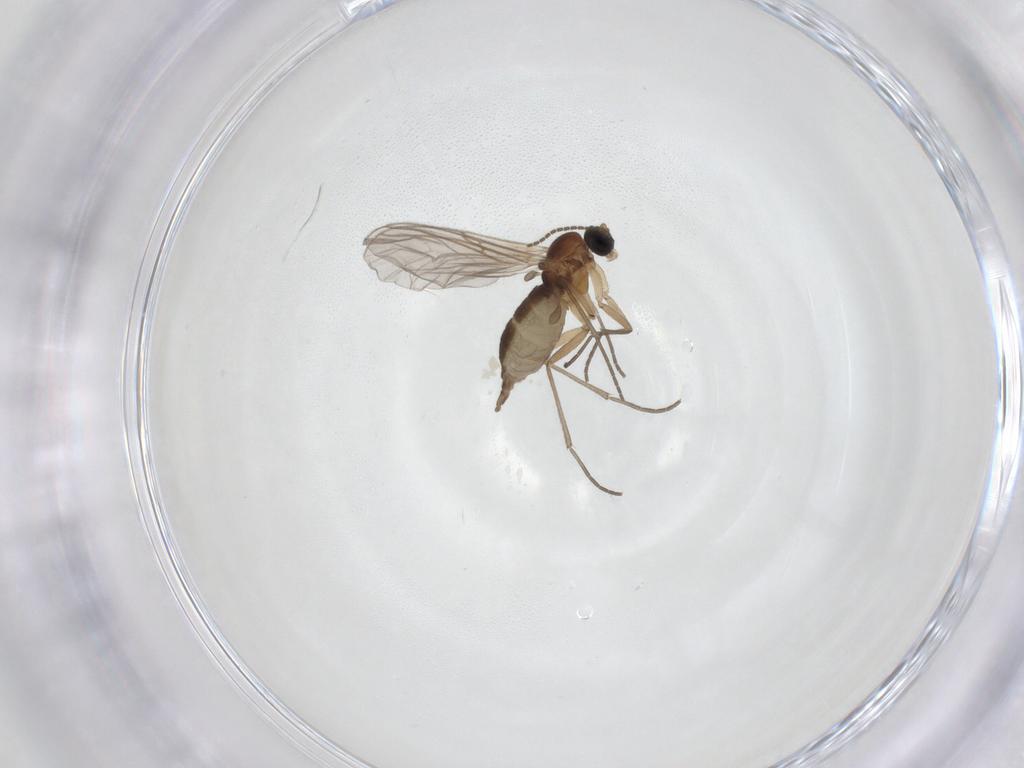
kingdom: Animalia
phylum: Arthropoda
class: Insecta
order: Diptera
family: Sciaridae
